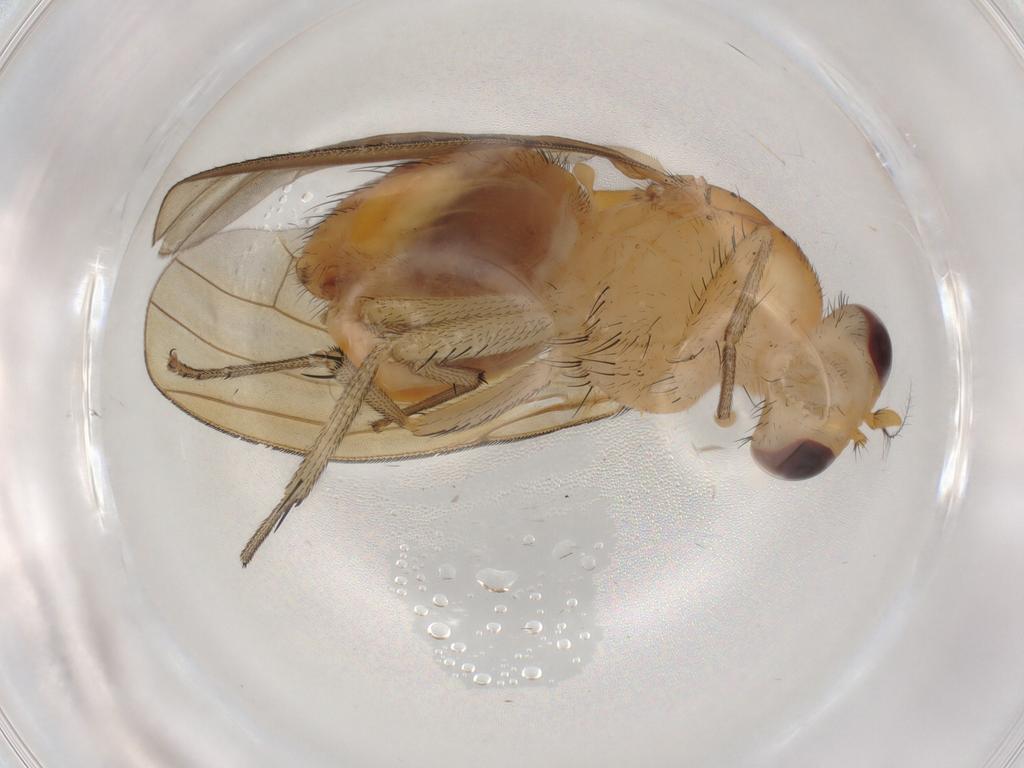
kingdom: Animalia
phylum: Arthropoda
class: Insecta
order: Diptera
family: Cecidomyiidae
